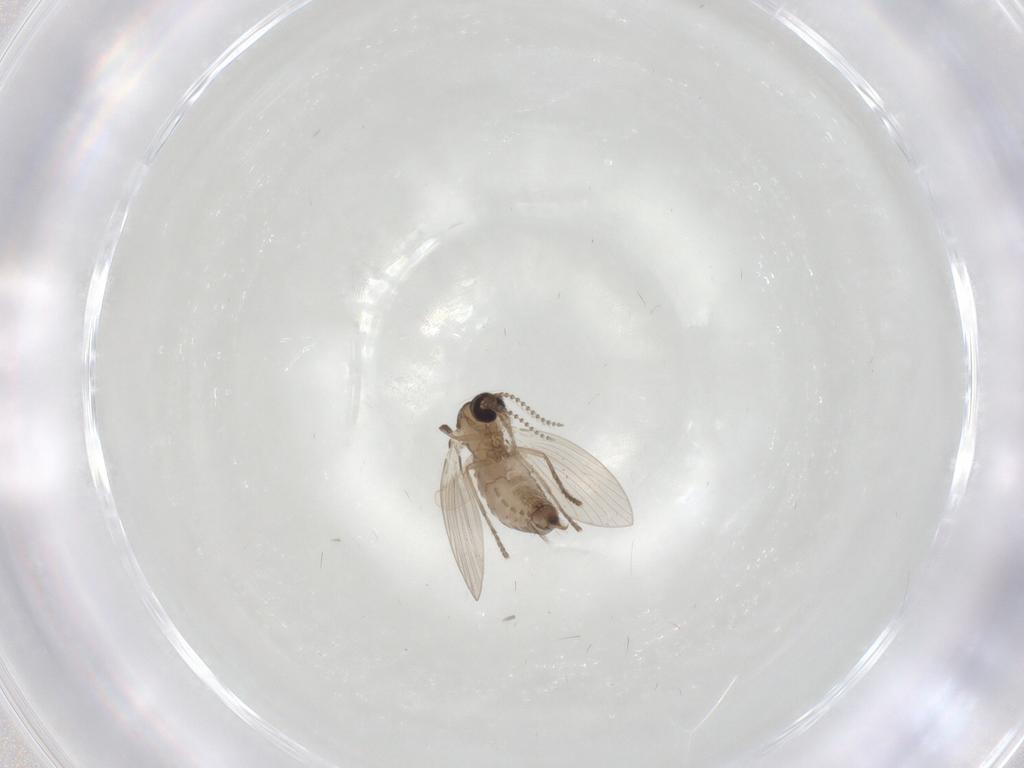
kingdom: Animalia
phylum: Arthropoda
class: Insecta
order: Diptera
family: Psychodidae
